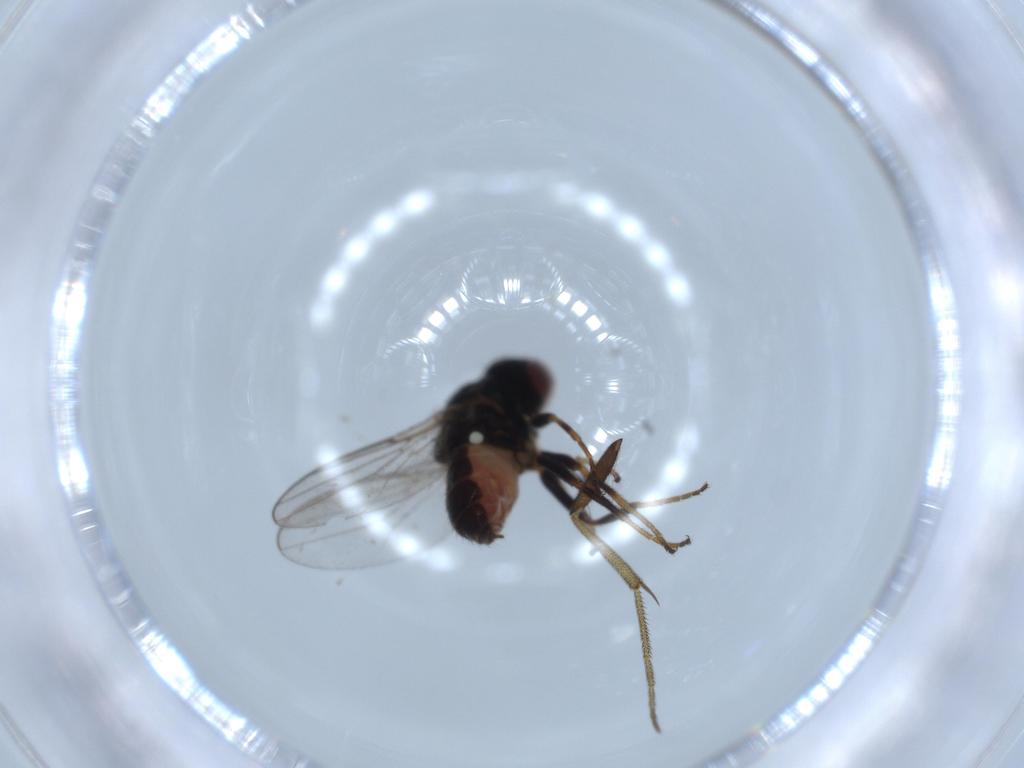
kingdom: Animalia
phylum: Arthropoda
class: Insecta
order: Diptera
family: Chloropidae
